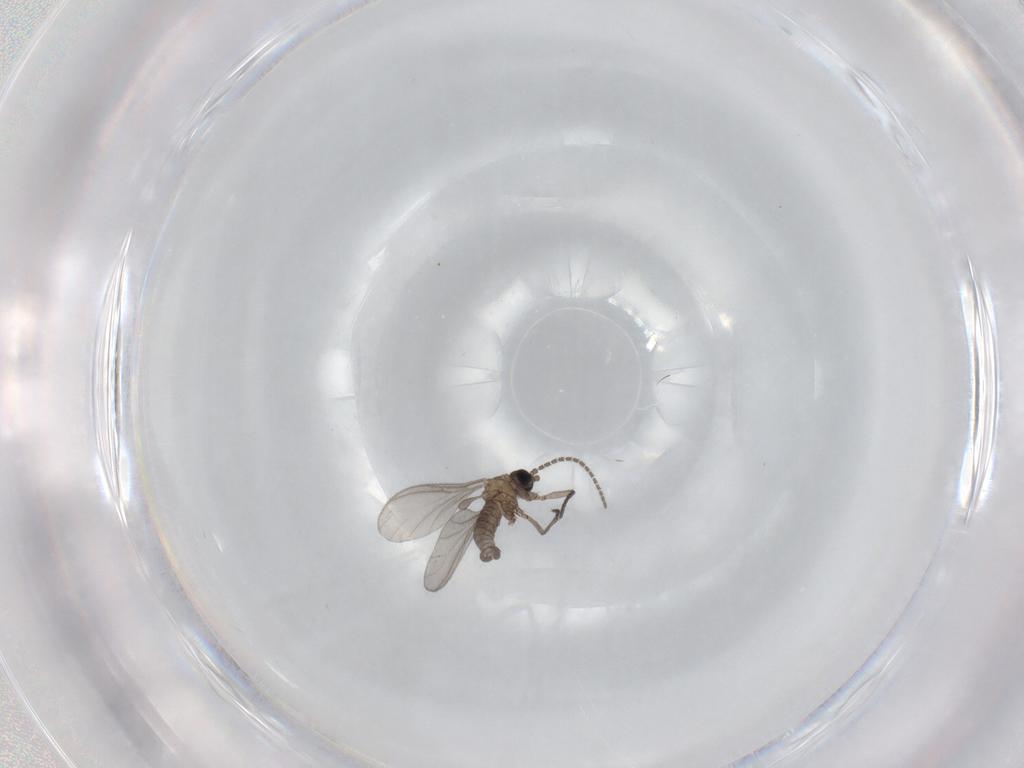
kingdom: Animalia
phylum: Arthropoda
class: Insecta
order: Diptera
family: Sciaridae
